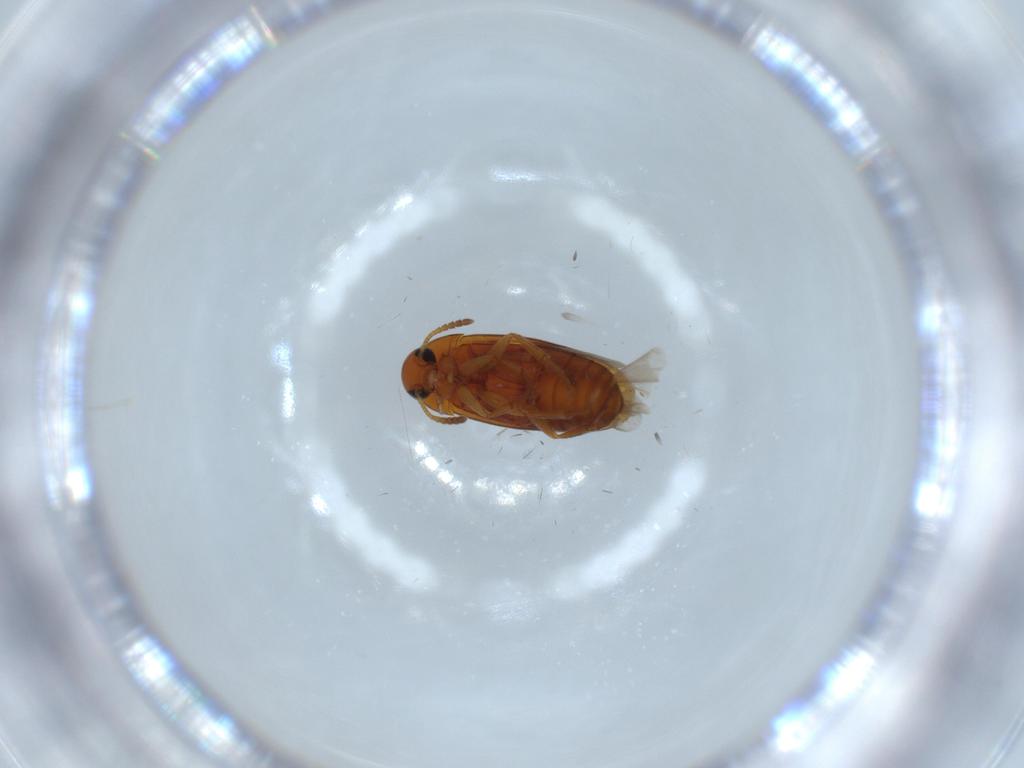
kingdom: Animalia
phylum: Arthropoda
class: Insecta
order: Coleoptera
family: Scraptiidae
